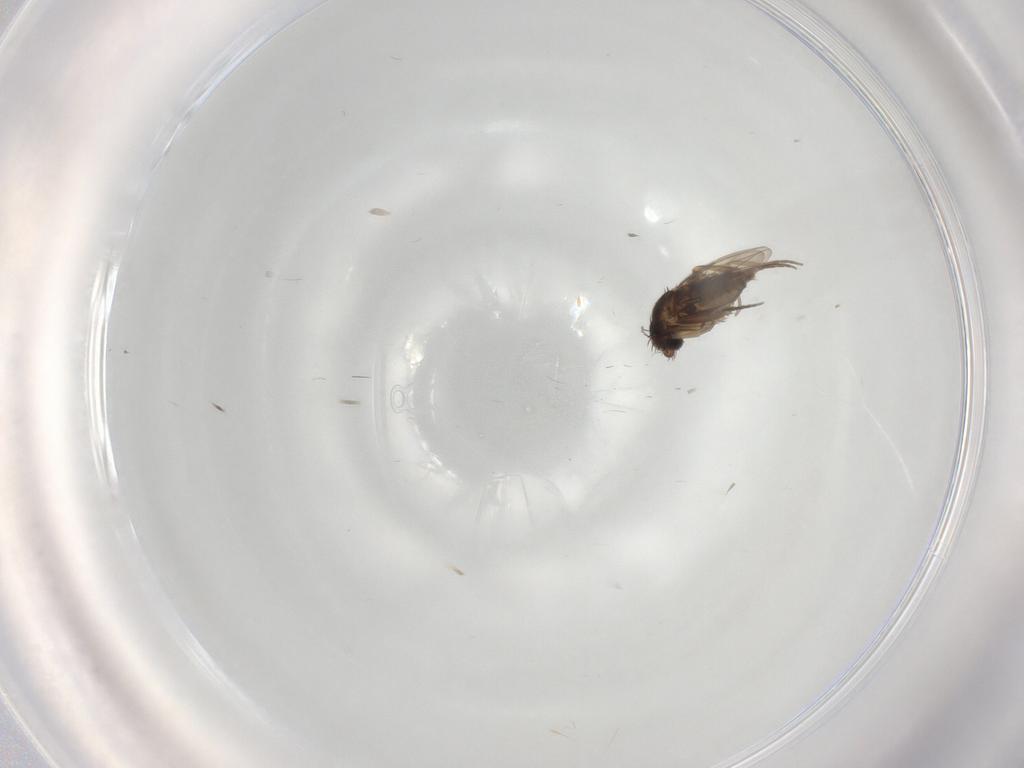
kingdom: Animalia
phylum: Arthropoda
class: Insecta
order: Diptera
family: Phoridae
